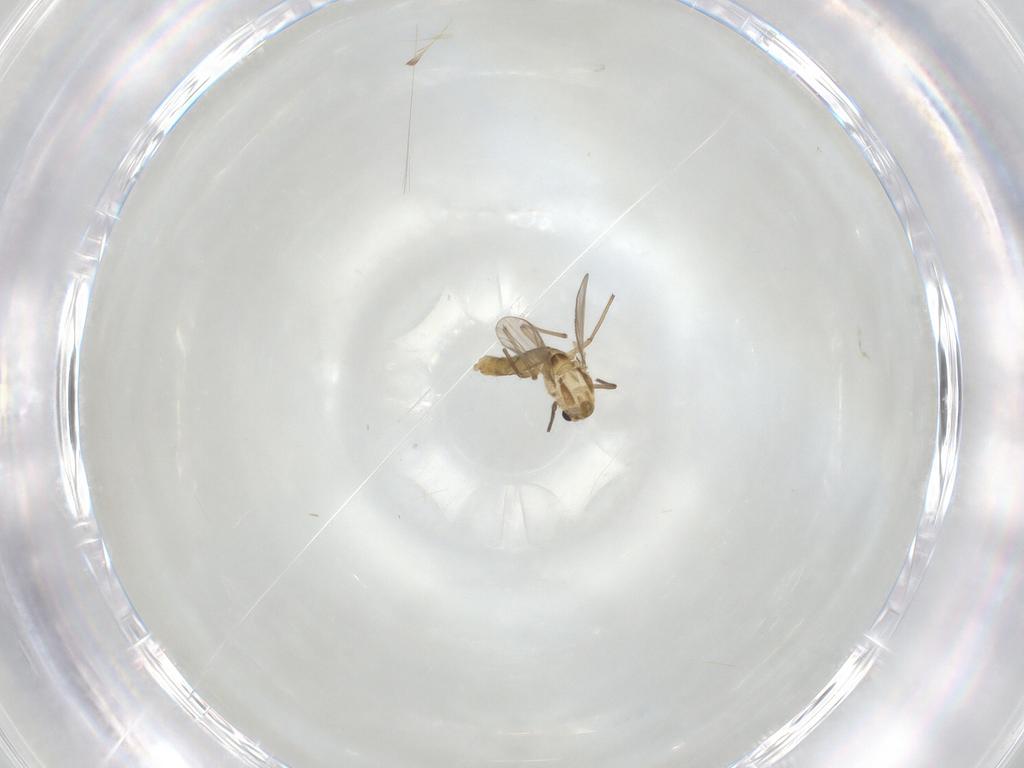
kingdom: Animalia
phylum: Arthropoda
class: Insecta
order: Diptera
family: Chironomidae
